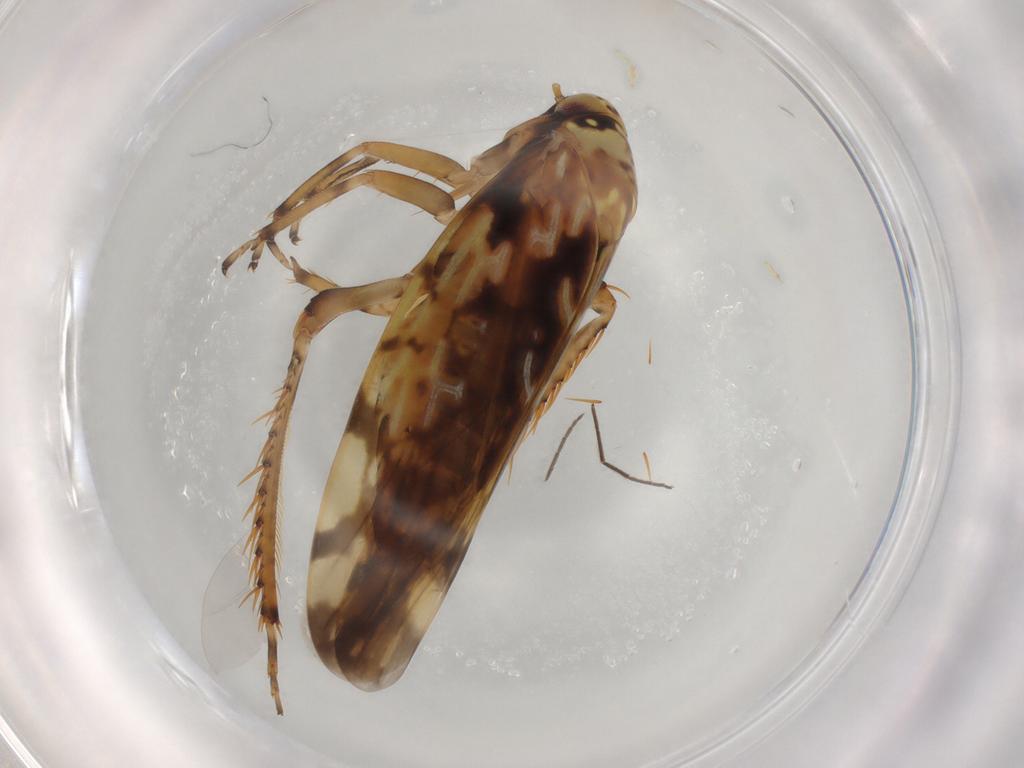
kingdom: Animalia
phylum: Arthropoda
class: Insecta
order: Hemiptera
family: Cicadellidae
